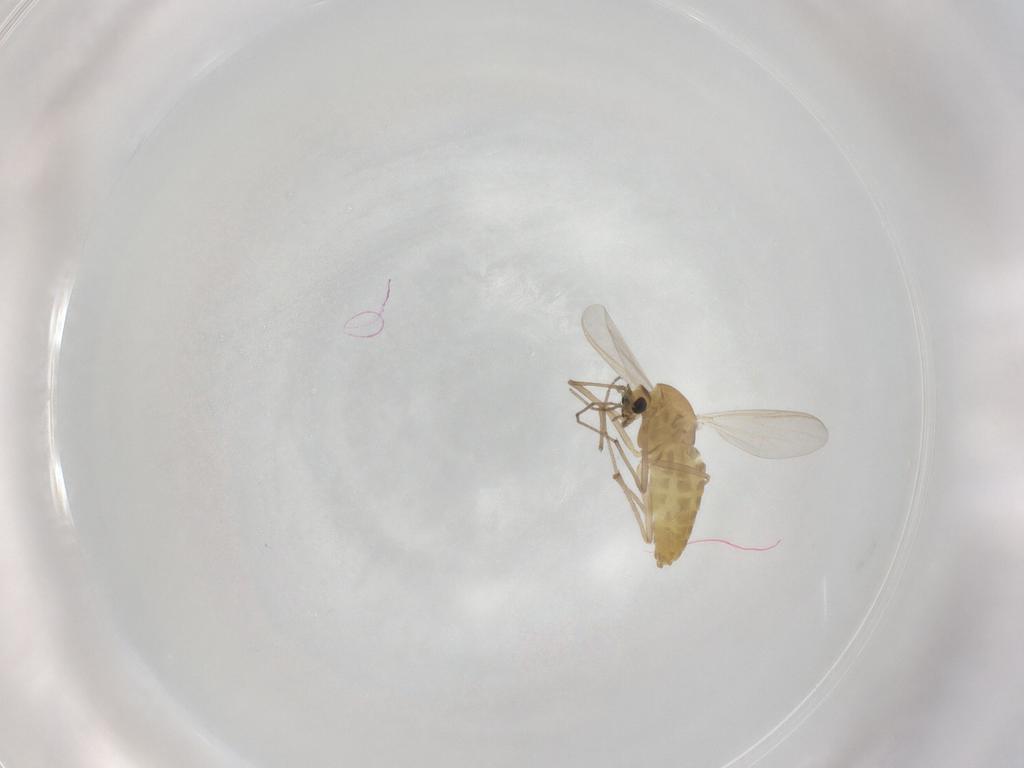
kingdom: Animalia
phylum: Arthropoda
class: Insecta
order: Diptera
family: Chironomidae
